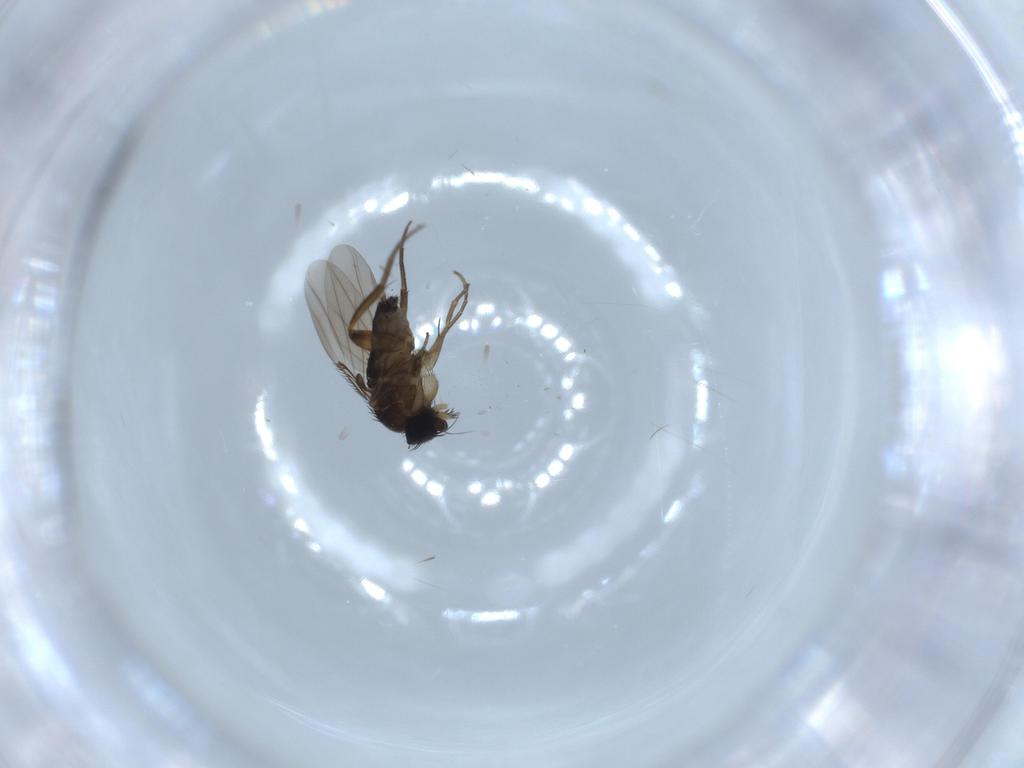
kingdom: Animalia
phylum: Arthropoda
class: Insecta
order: Diptera
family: Phoridae
